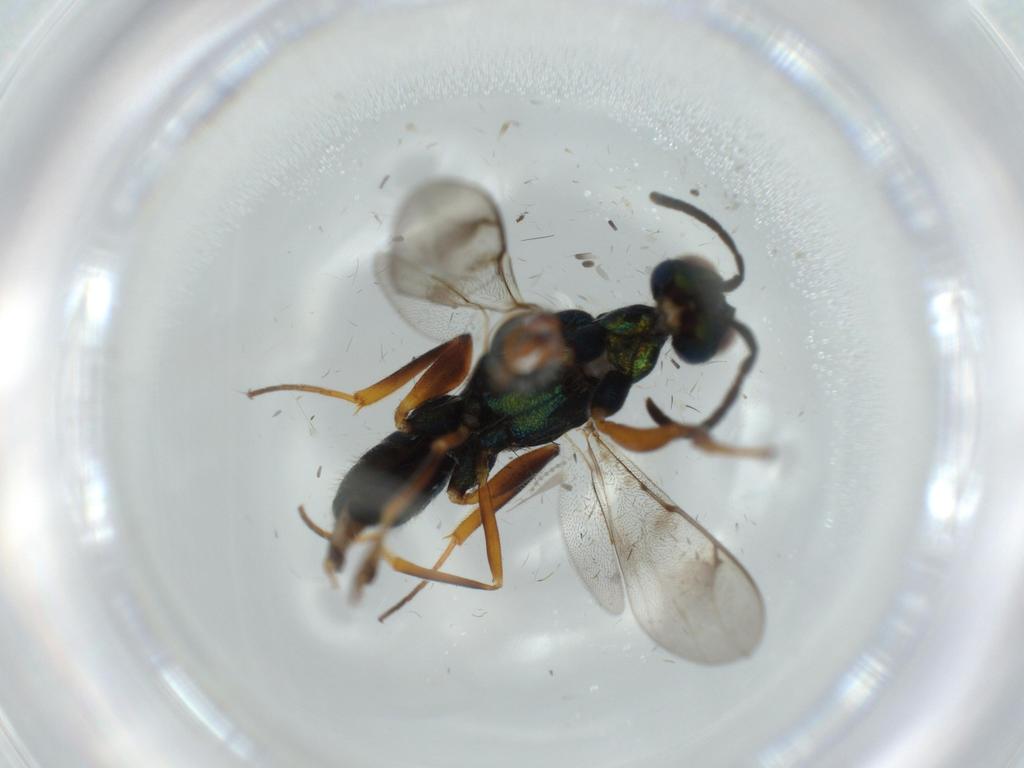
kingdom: Animalia
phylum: Arthropoda
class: Insecta
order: Hymenoptera
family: Lyciscidae
